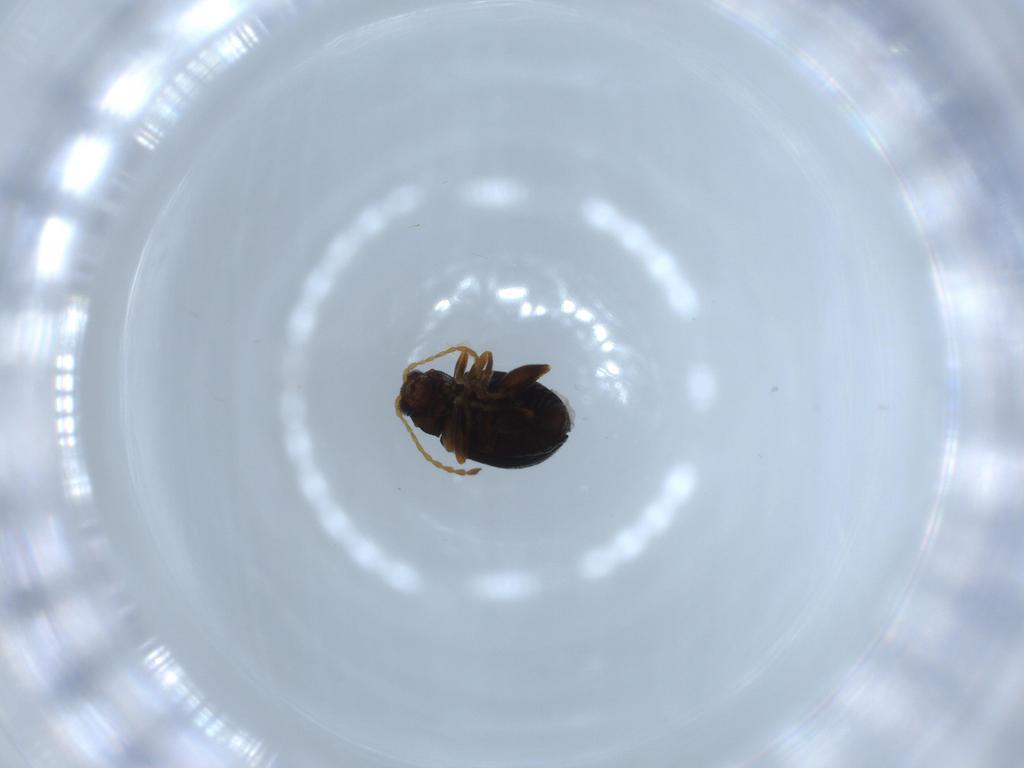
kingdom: Animalia
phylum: Arthropoda
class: Insecta
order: Coleoptera
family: Chrysomelidae
